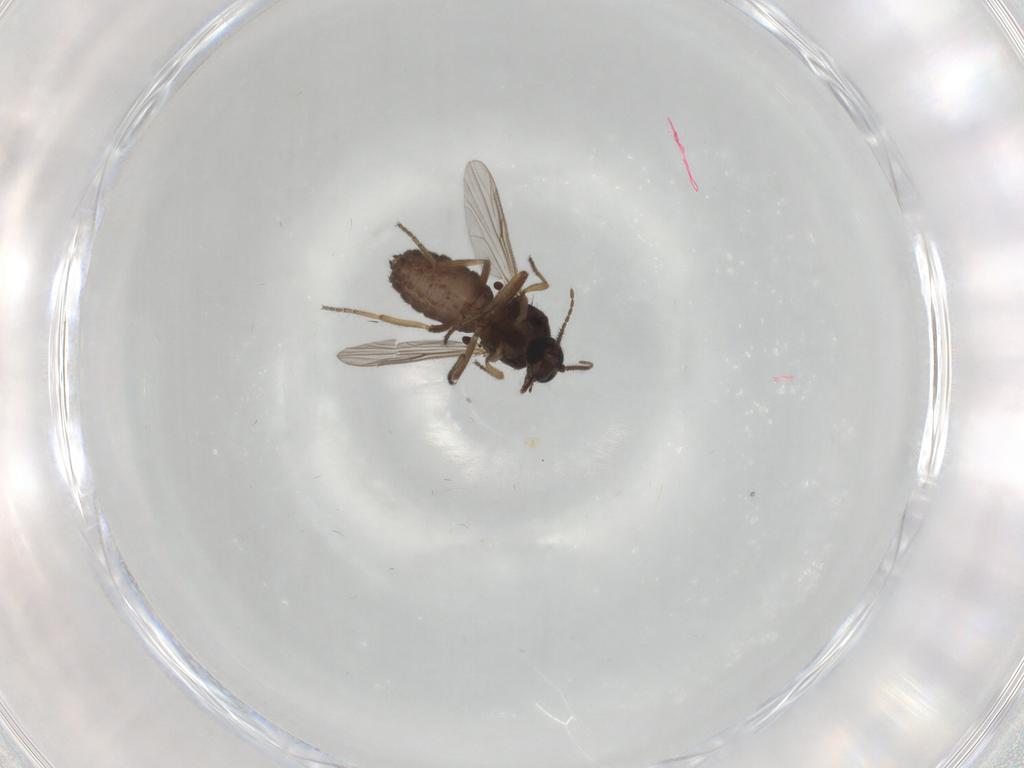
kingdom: Animalia
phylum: Arthropoda
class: Insecta
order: Diptera
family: Ceratopogonidae
